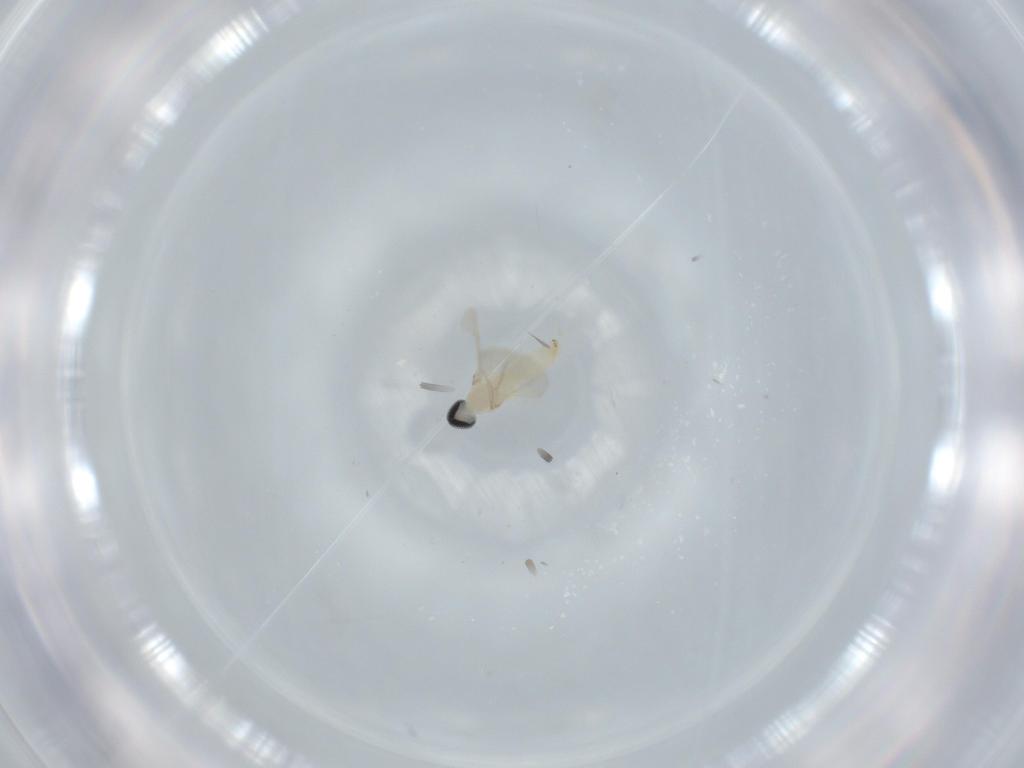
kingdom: Animalia
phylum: Arthropoda
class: Insecta
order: Diptera
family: Cecidomyiidae
